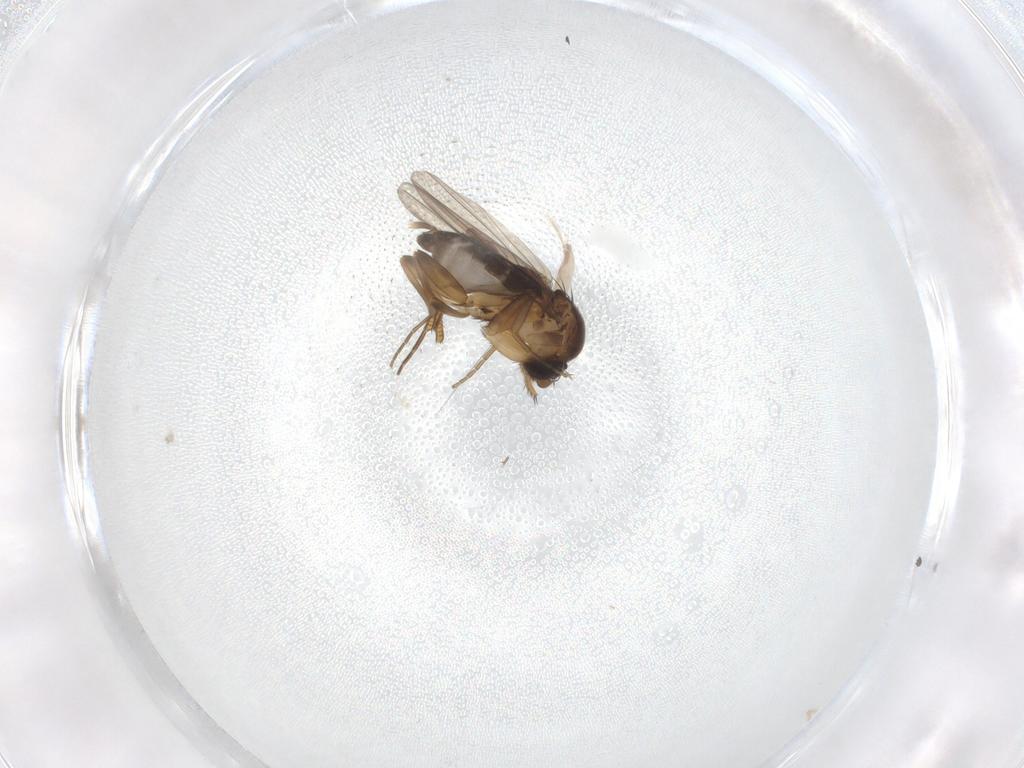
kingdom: Animalia
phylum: Arthropoda
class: Insecta
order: Diptera
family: Phoridae
